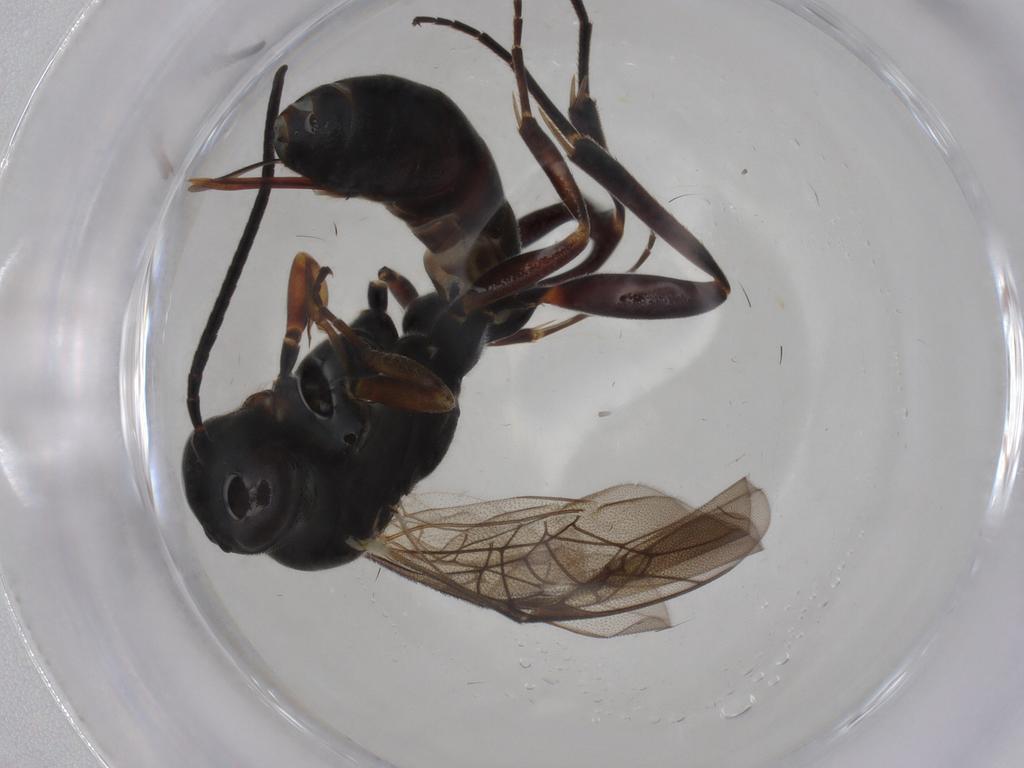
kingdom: Animalia
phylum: Arthropoda
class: Insecta
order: Hymenoptera
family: Ichneumonidae
